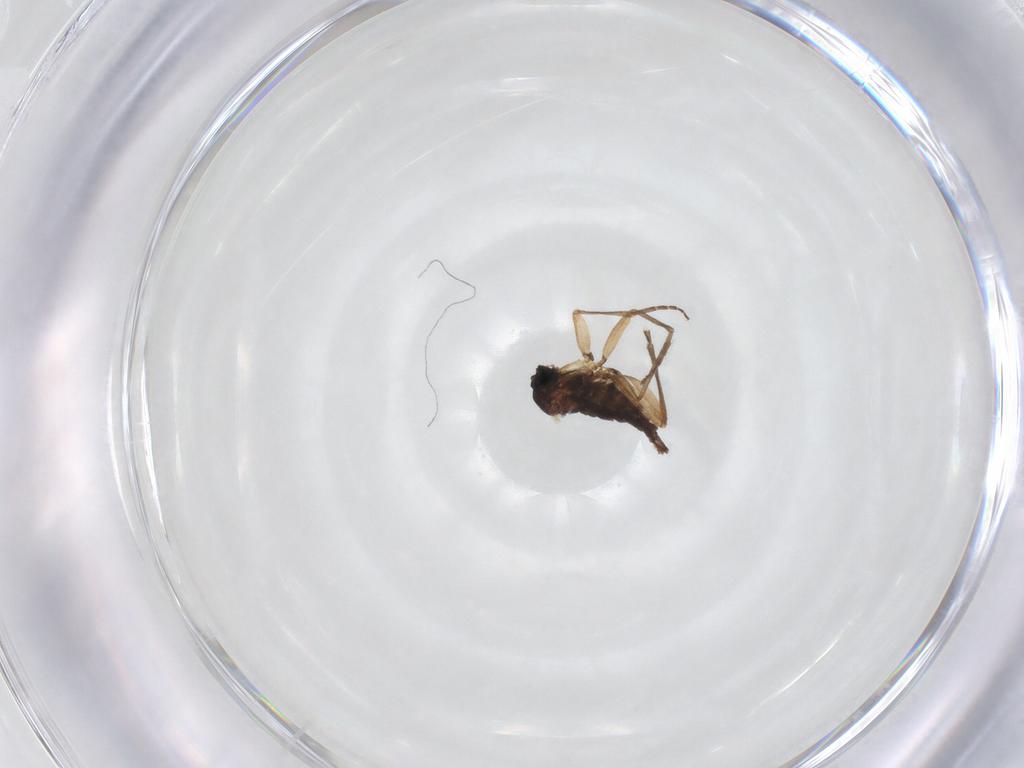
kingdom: Animalia
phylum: Arthropoda
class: Insecta
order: Diptera
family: Sciaridae
